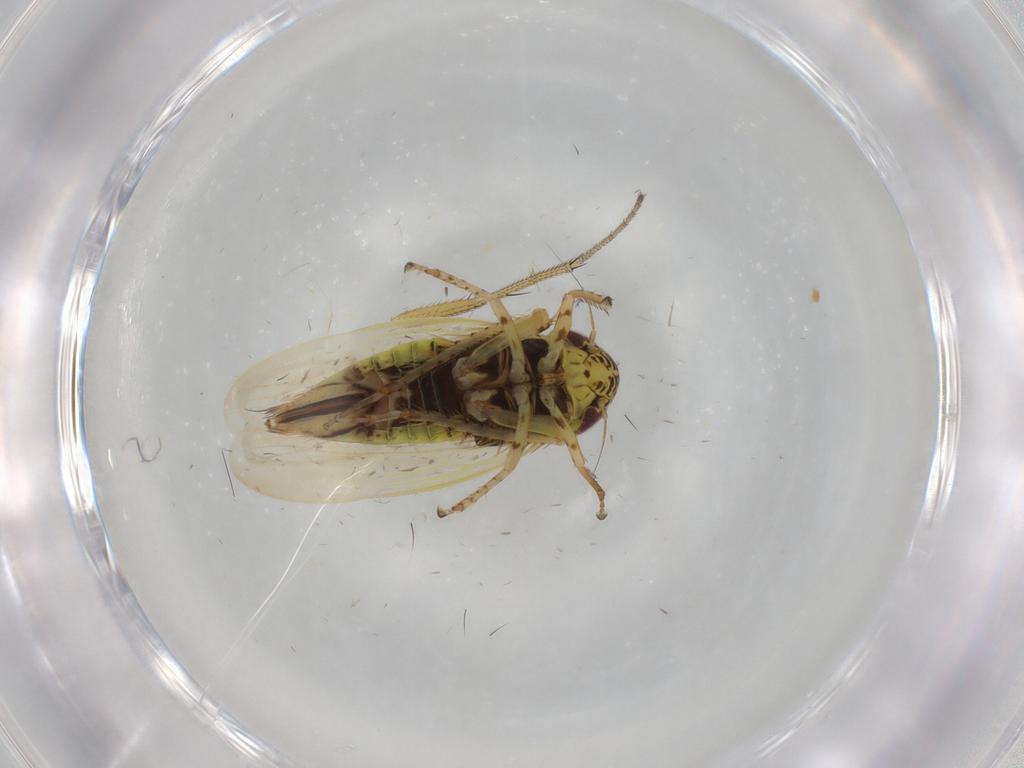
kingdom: Animalia
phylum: Arthropoda
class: Insecta
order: Hemiptera
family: Cicadellidae
